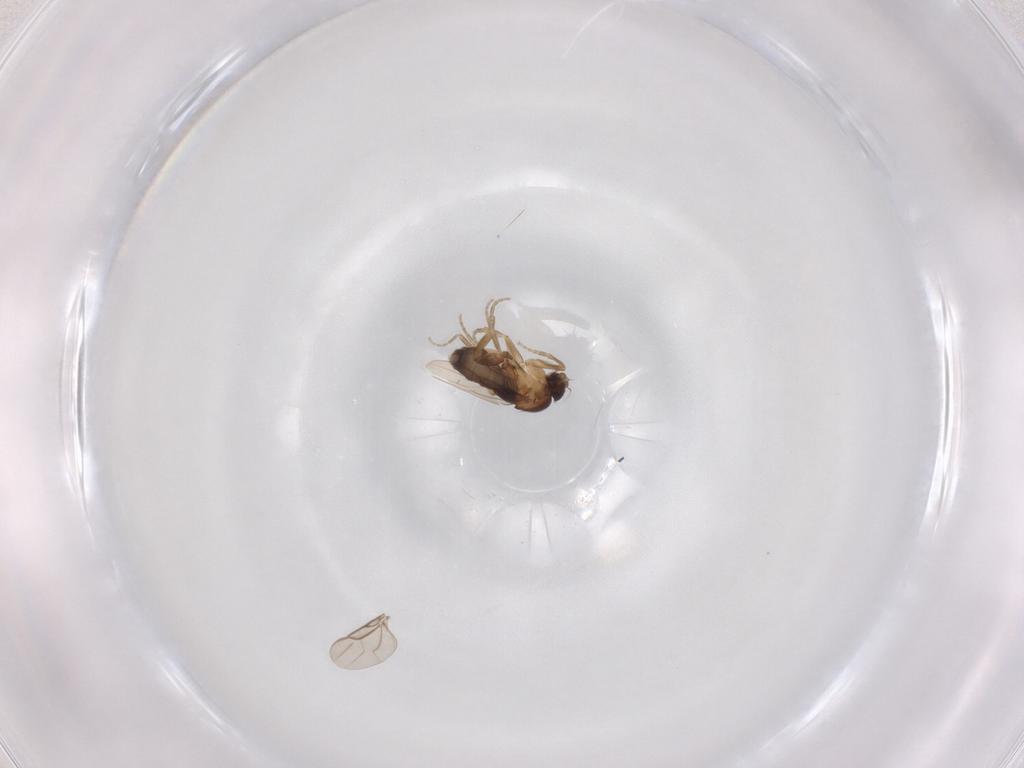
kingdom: Animalia
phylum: Arthropoda
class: Insecta
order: Diptera
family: Phoridae
